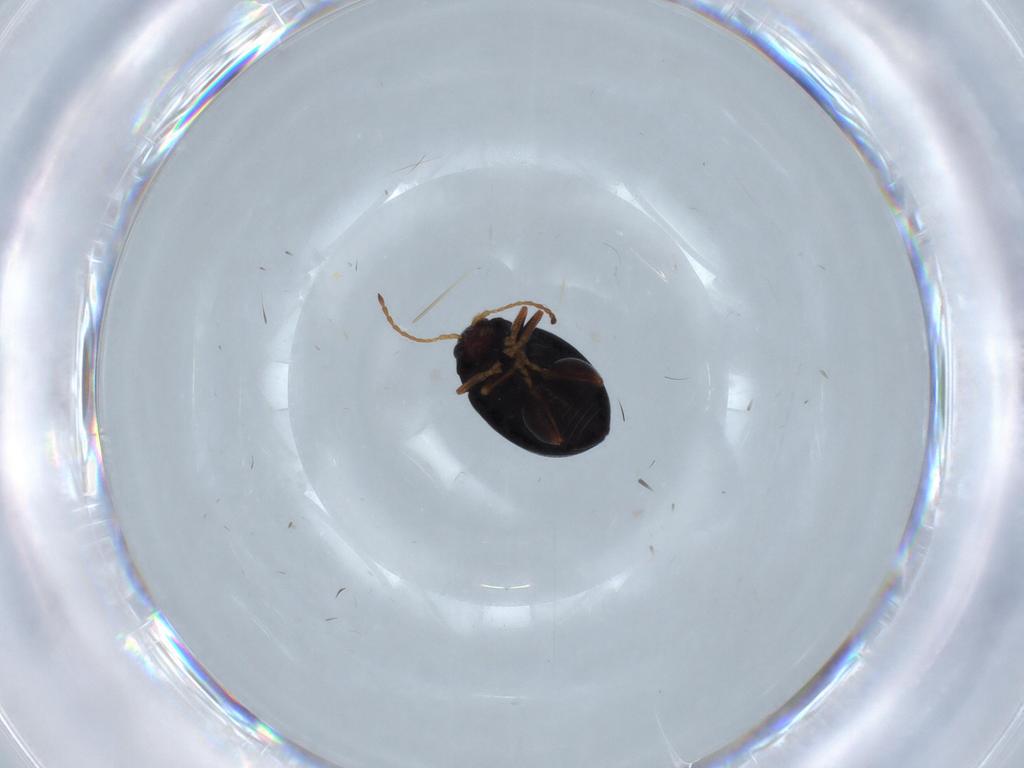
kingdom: Animalia
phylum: Arthropoda
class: Insecta
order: Coleoptera
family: Chrysomelidae
